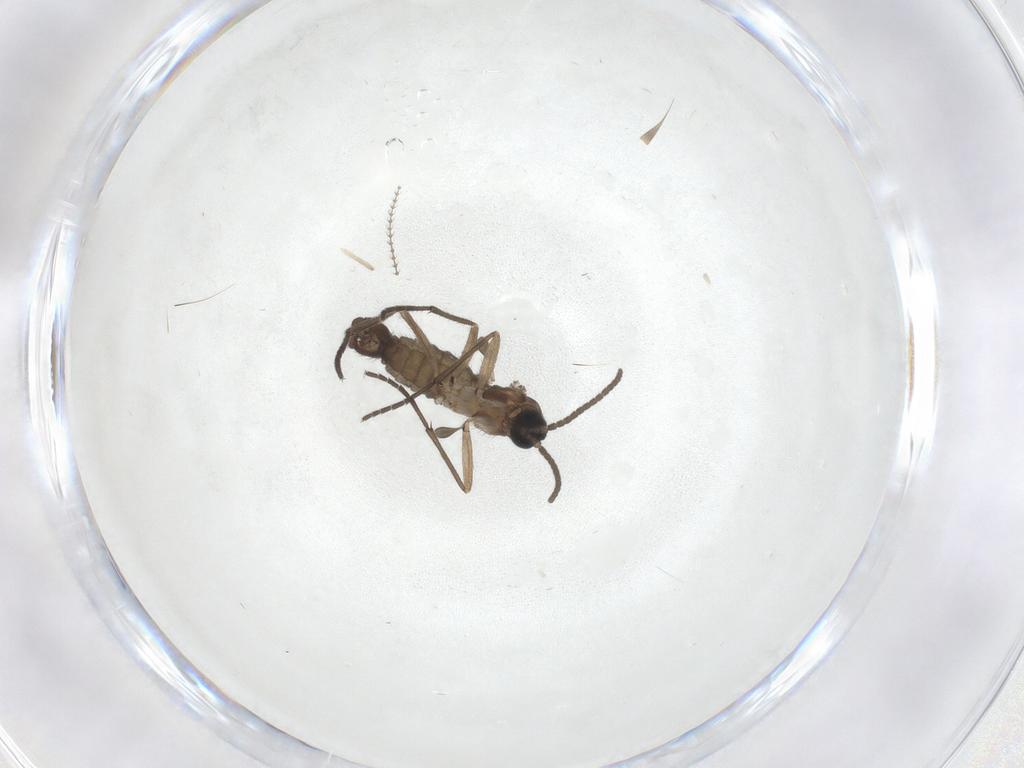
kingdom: Animalia
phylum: Arthropoda
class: Insecta
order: Diptera
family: Sciaridae
